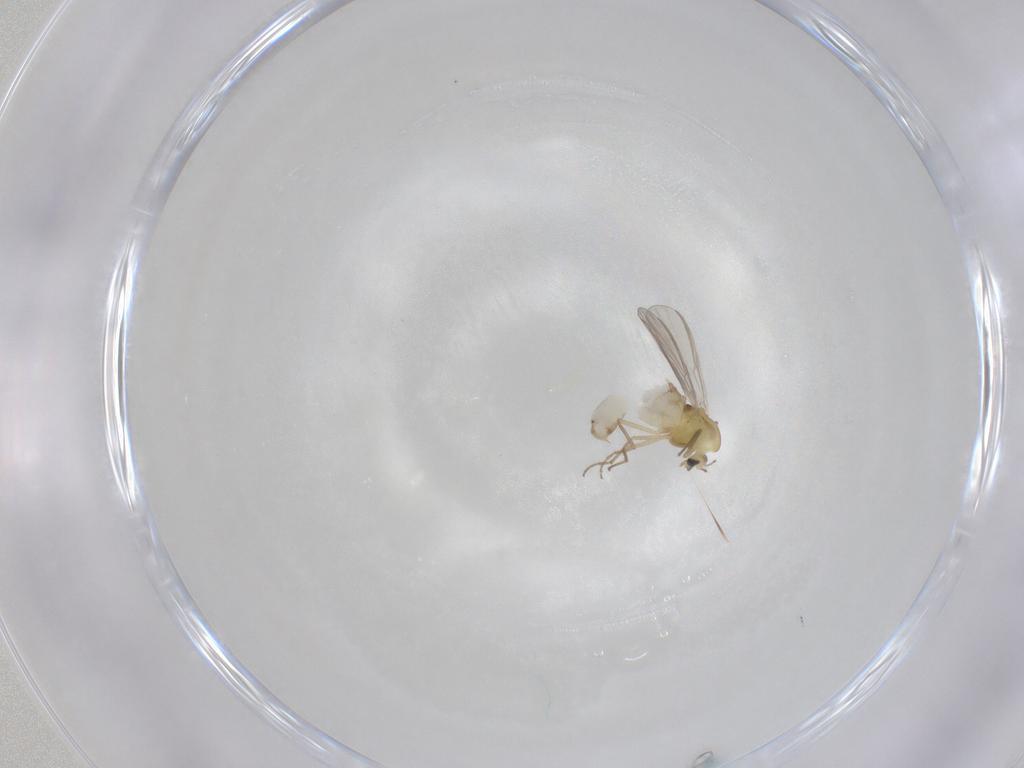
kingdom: Animalia
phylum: Arthropoda
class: Insecta
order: Diptera
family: Chironomidae
